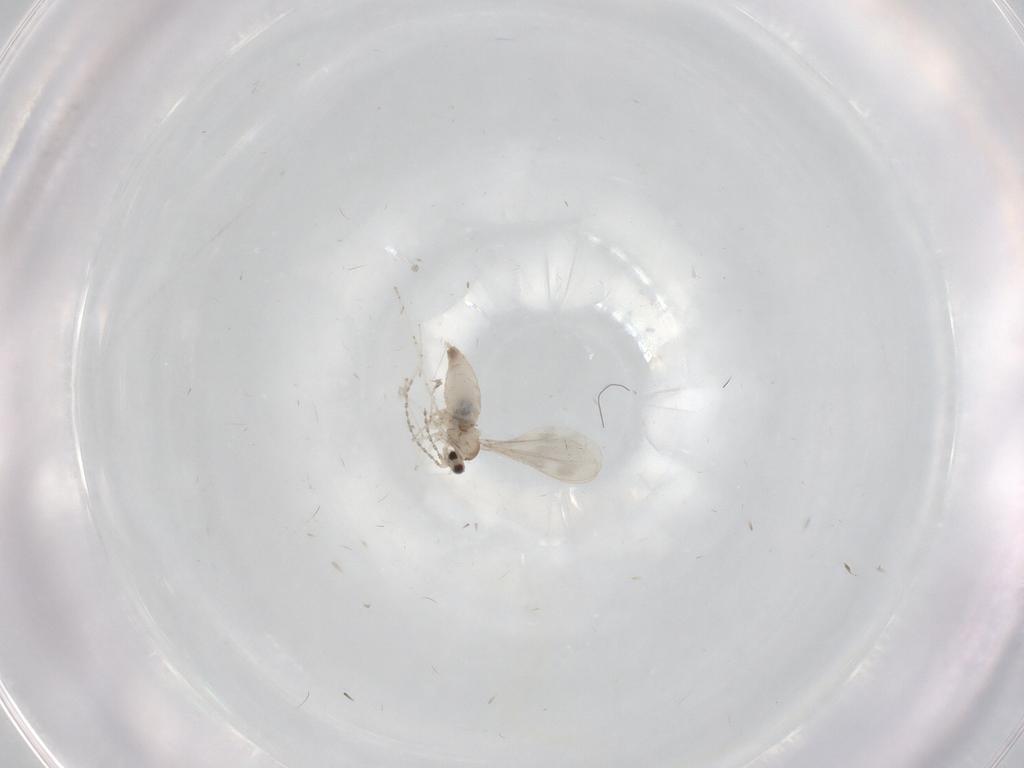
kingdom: Animalia
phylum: Arthropoda
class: Insecta
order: Diptera
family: Cecidomyiidae
